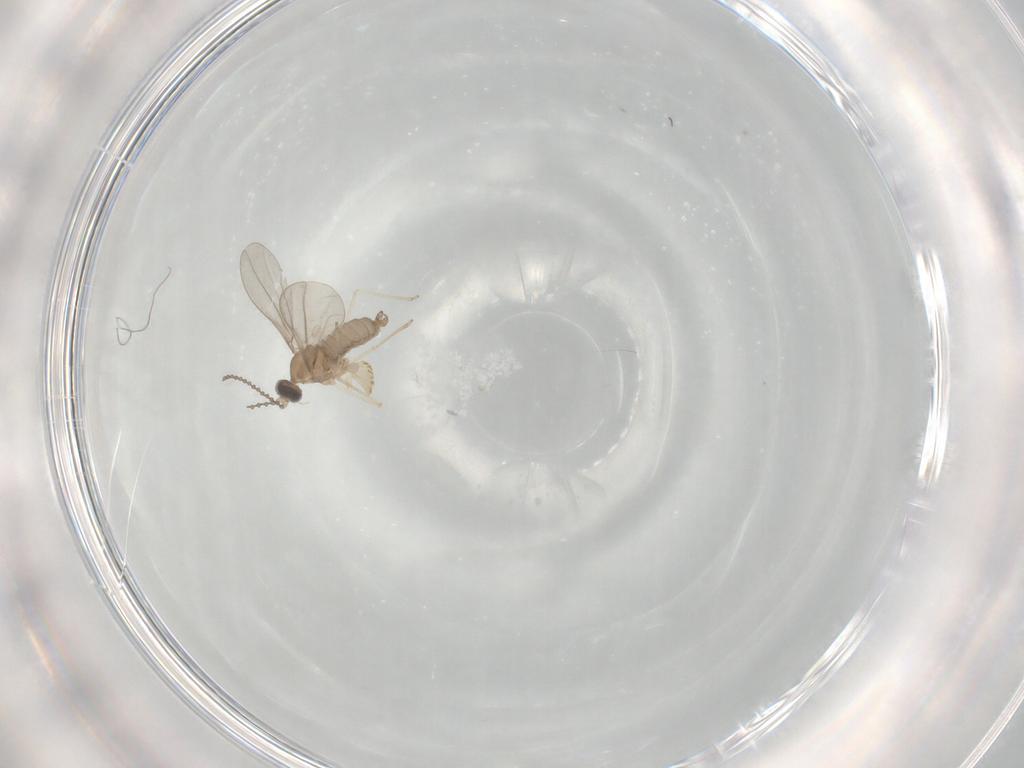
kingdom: Animalia
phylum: Arthropoda
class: Insecta
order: Diptera
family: Cecidomyiidae
